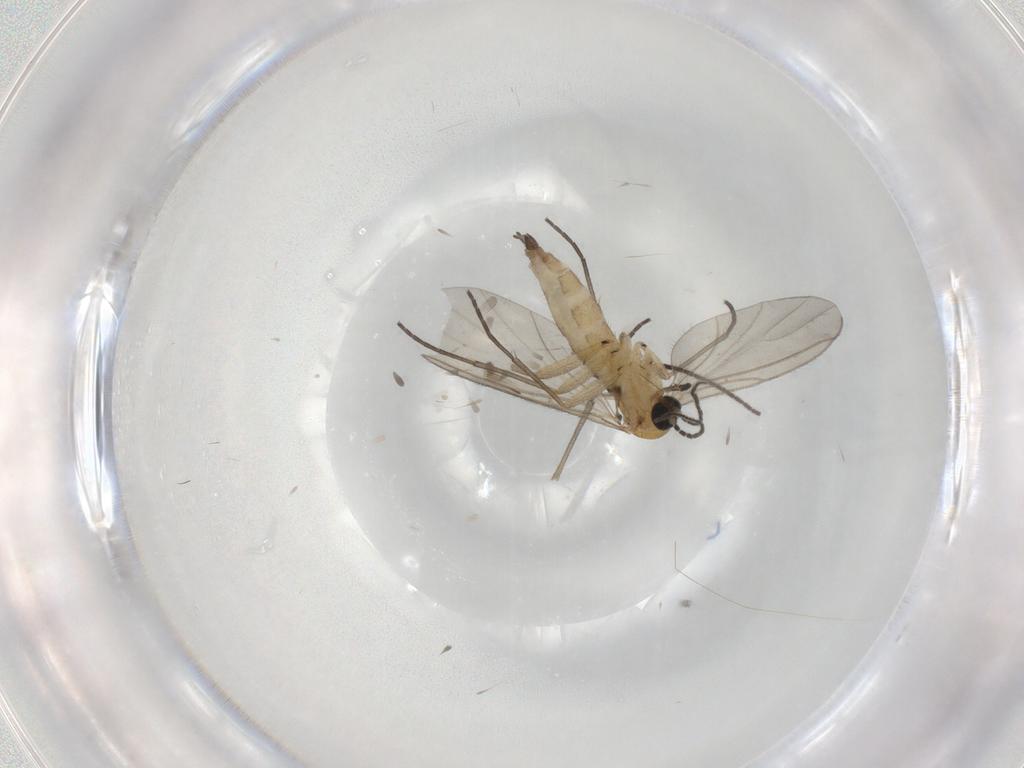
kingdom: Animalia
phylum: Arthropoda
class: Insecta
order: Diptera
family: Sciaridae
